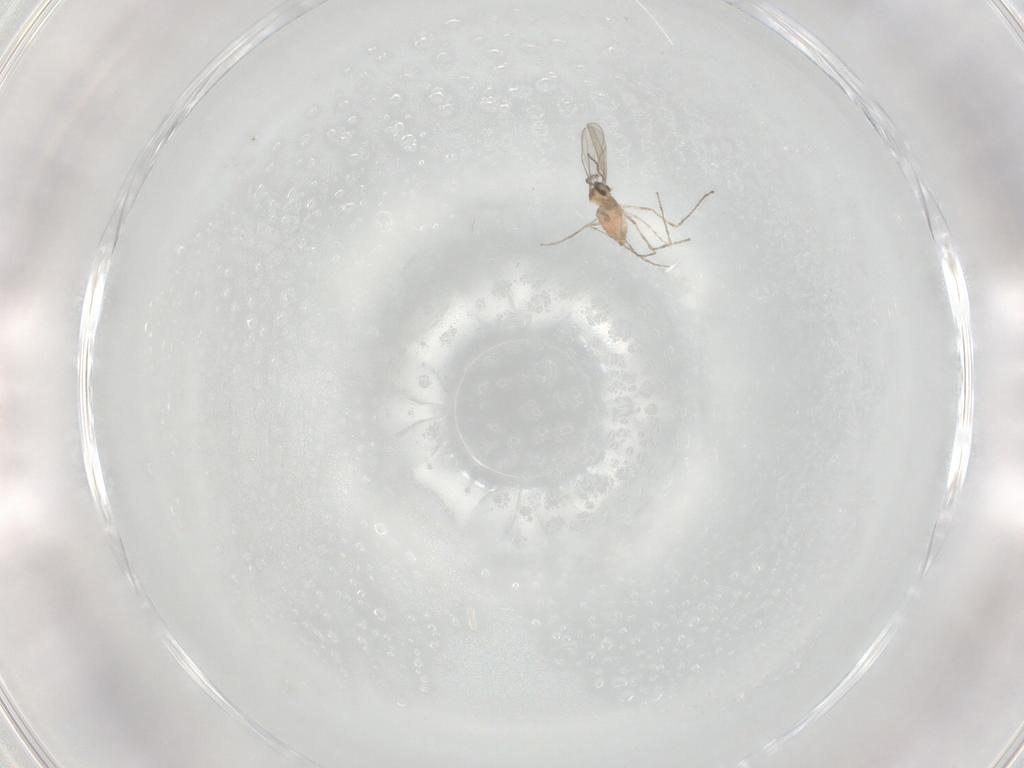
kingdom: Animalia
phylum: Arthropoda
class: Insecta
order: Diptera
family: Cecidomyiidae
